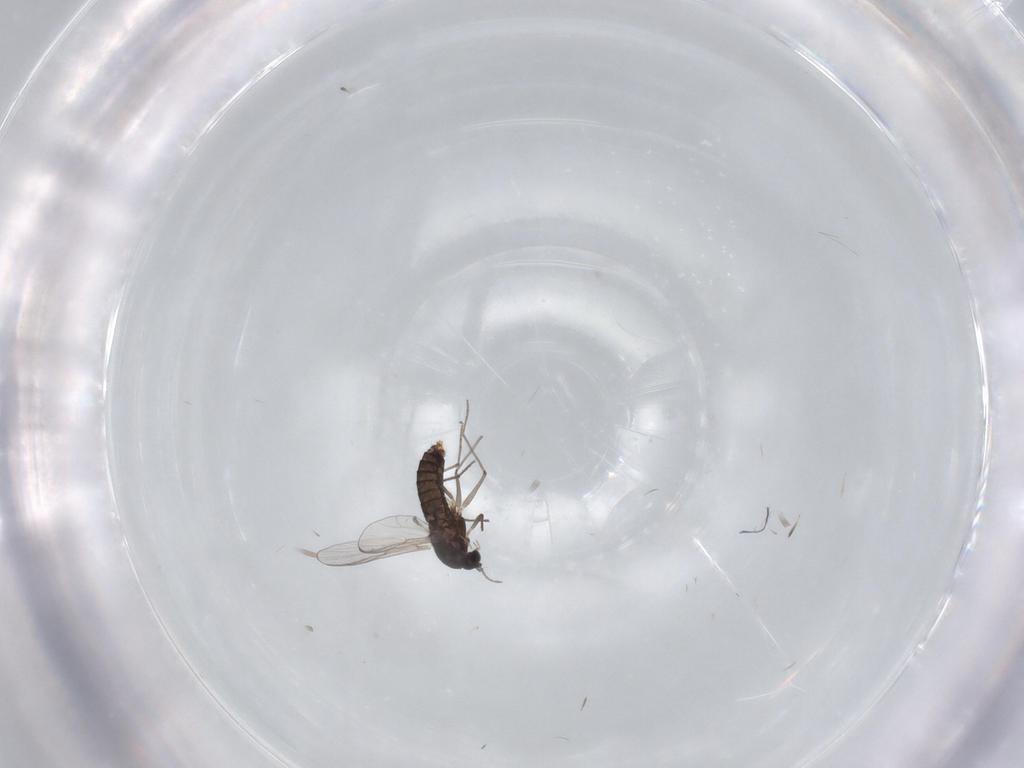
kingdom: Animalia
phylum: Arthropoda
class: Insecta
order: Diptera
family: Chironomidae
